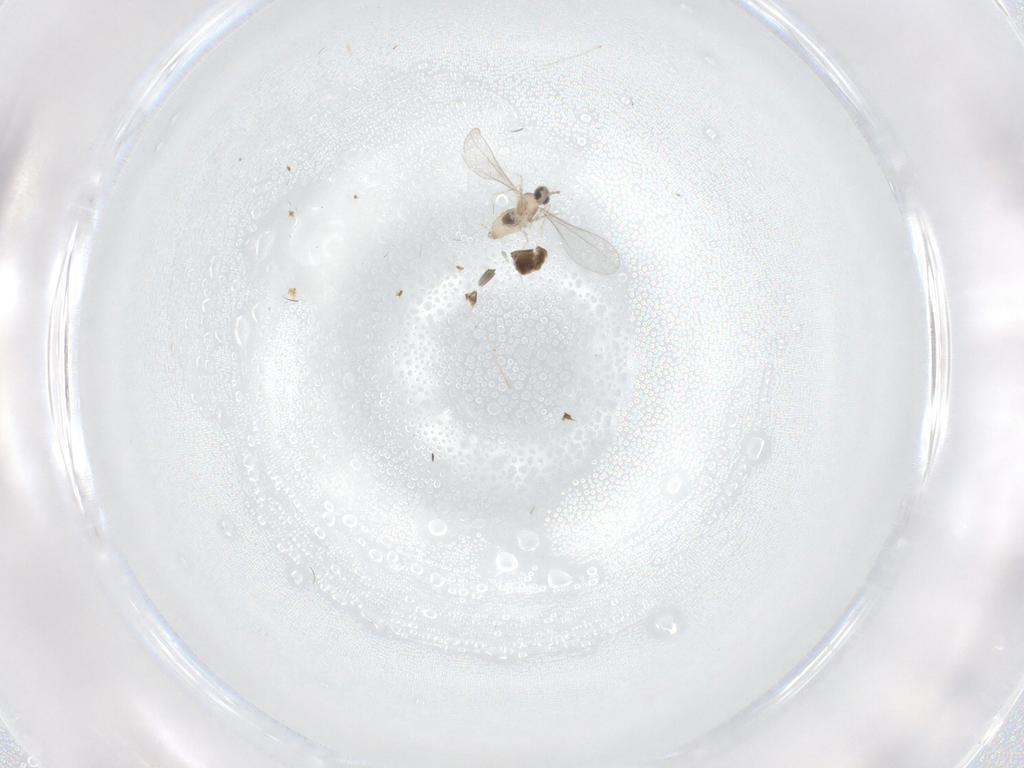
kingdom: Animalia
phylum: Arthropoda
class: Insecta
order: Diptera
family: Cecidomyiidae
